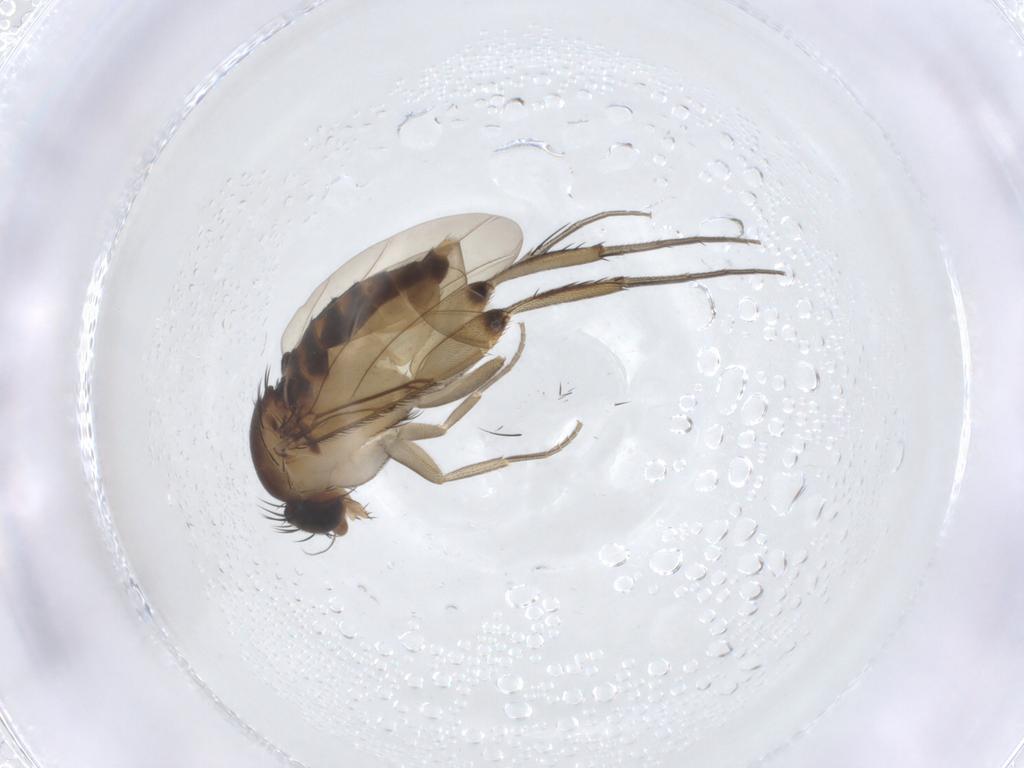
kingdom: Animalia
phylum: Arthropoda
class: Insecta
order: Diptera
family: Phoridae
